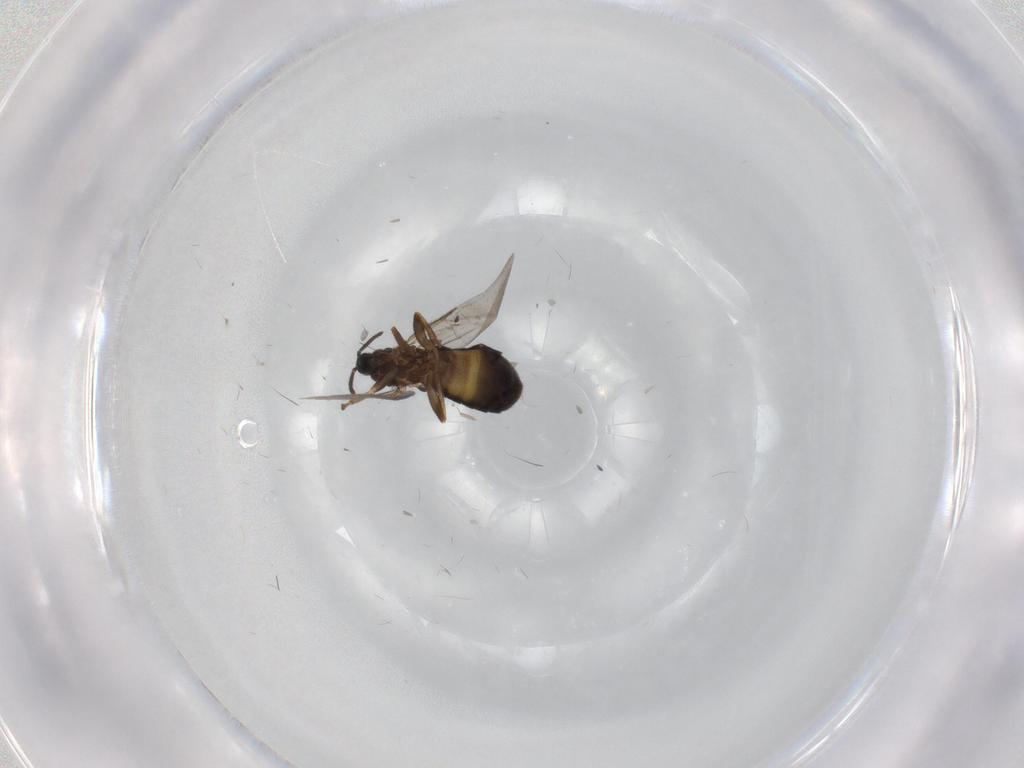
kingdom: Animalia
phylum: Arthropoda
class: Insecta
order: Diptera
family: Scatopsidae
